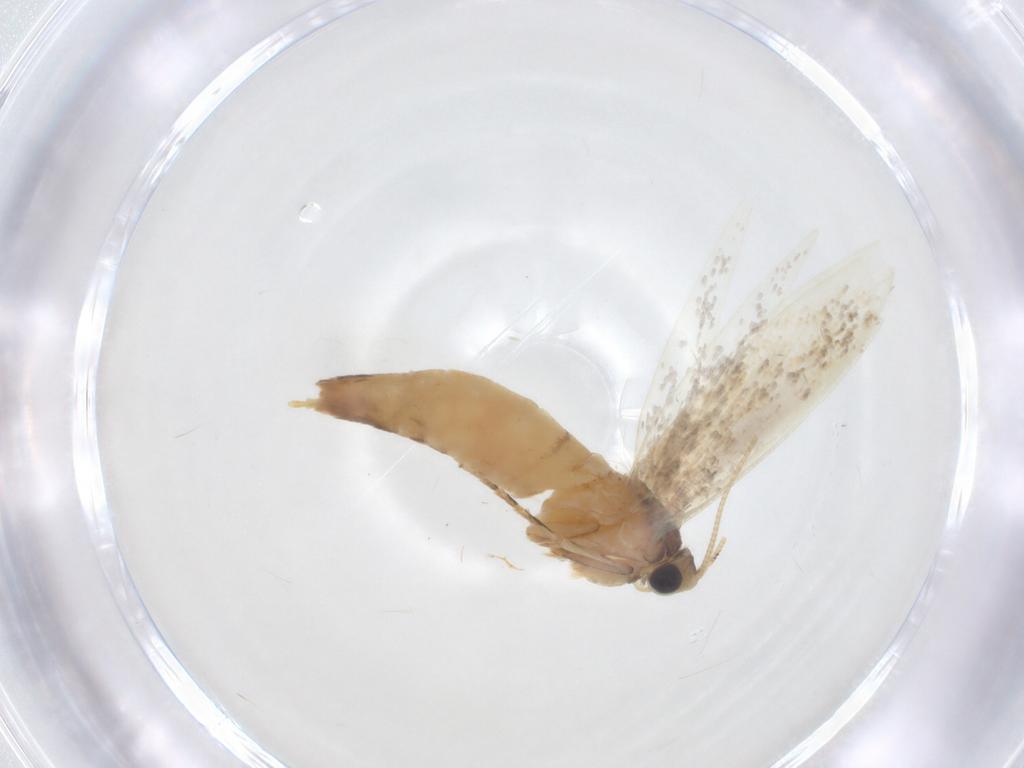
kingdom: Animalia
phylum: Arthropoda
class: Insecta
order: Lepidoptera
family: Tineidae
